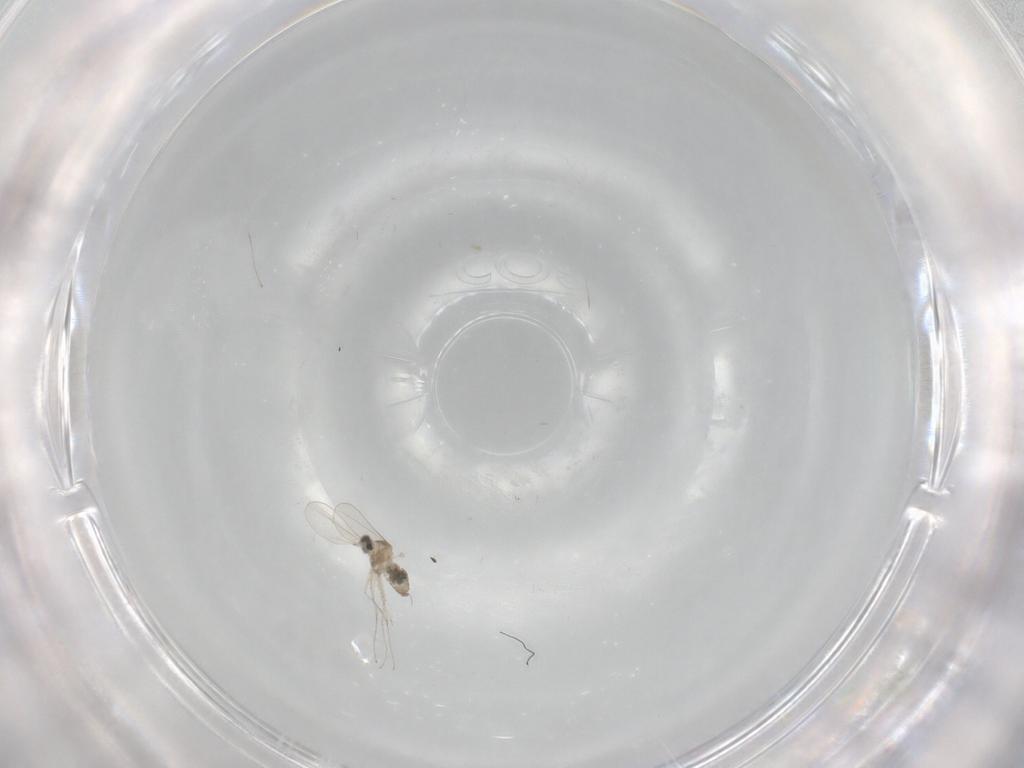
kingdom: Animalia
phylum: Arthropoda
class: Insecta
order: Diptera
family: Cecidomyiidae
